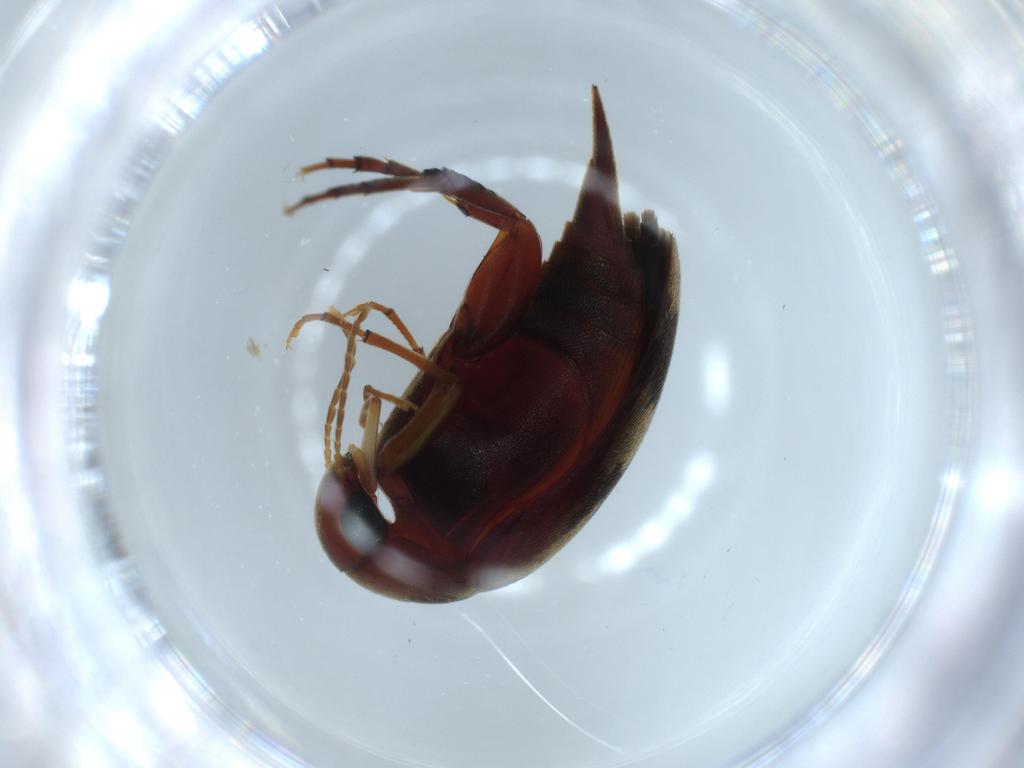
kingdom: Animalia
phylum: Arthropoda
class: Insecta
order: Coleoptera
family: Chrysomelidae
